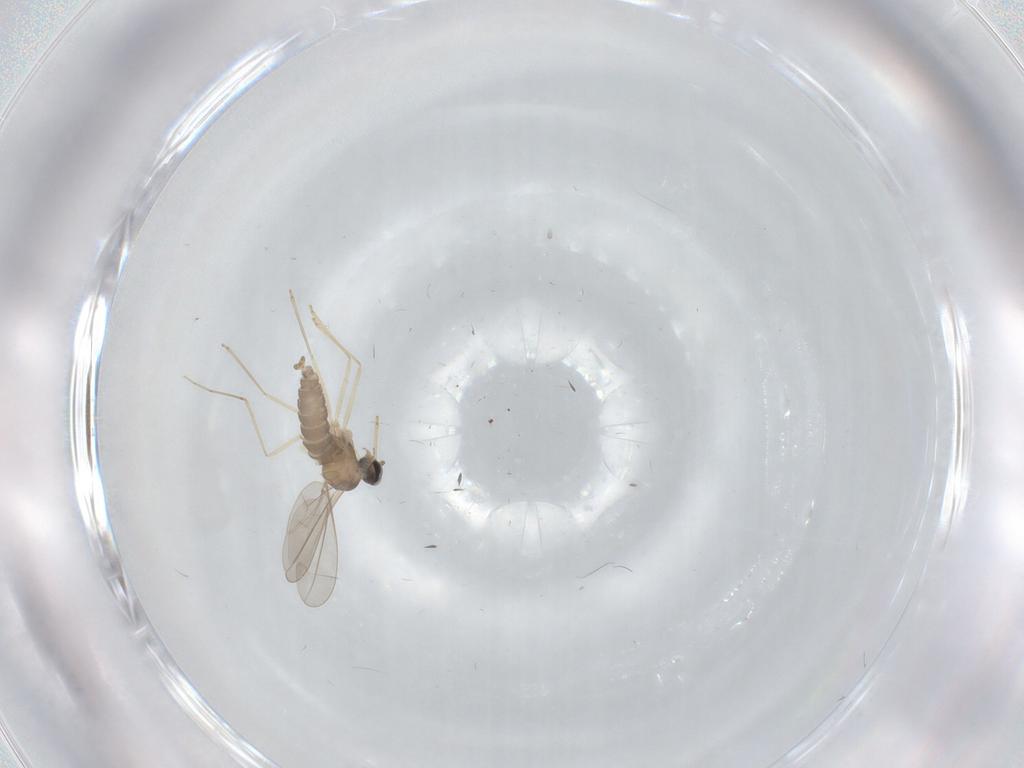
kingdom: Animalia
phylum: Arthropoda
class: Insecta
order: Diptera
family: Cecidomyiidae
